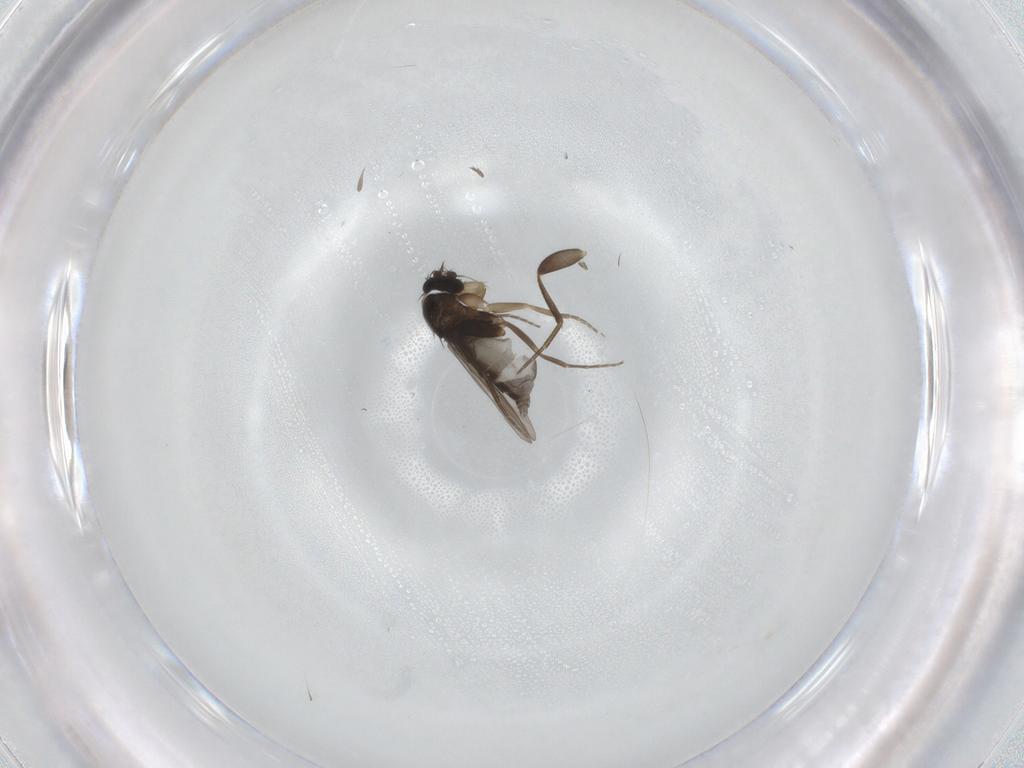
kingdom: Animalia
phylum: Arthropoda
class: Insecta
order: Diptera
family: Phoridae
